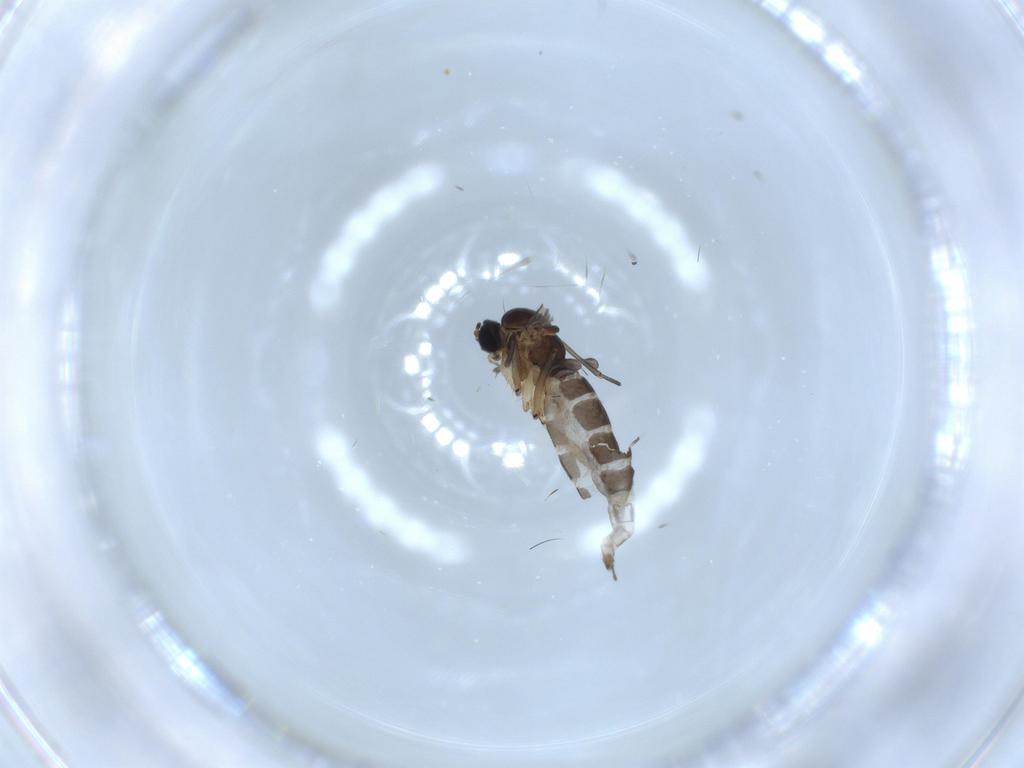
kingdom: Animalia
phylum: Arthropoda
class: Insecta
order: Diptera
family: Sciaridae
